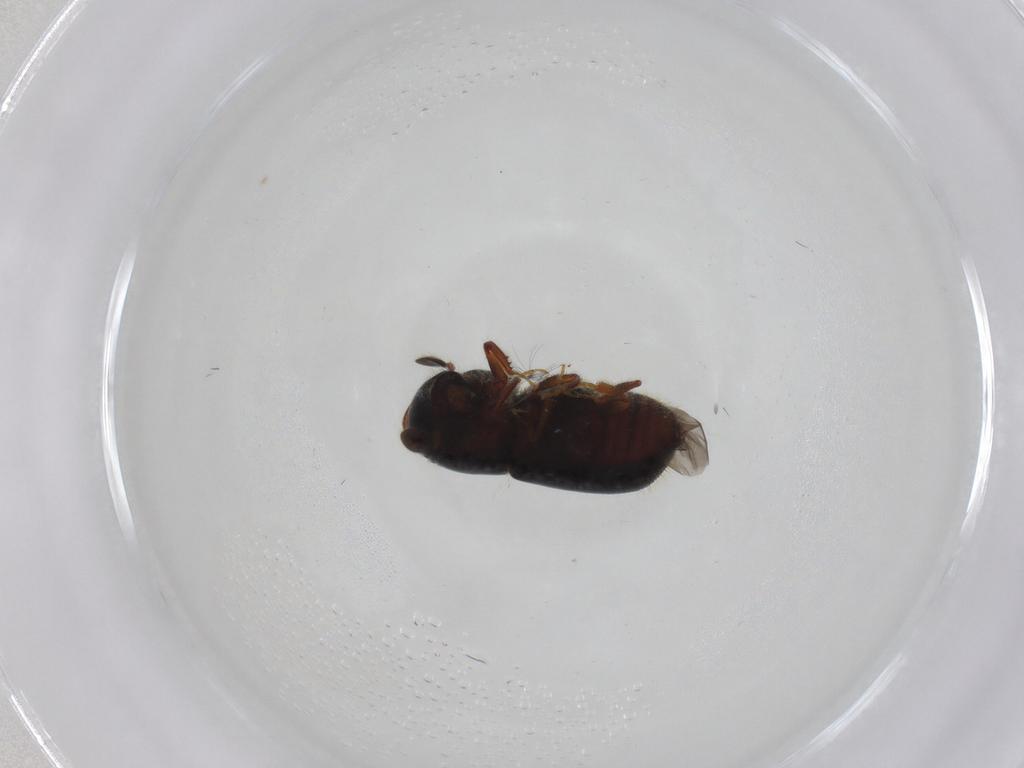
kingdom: Animalia
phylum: Arthropoda
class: Insecta
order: Coleoptera
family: Curculionidae
